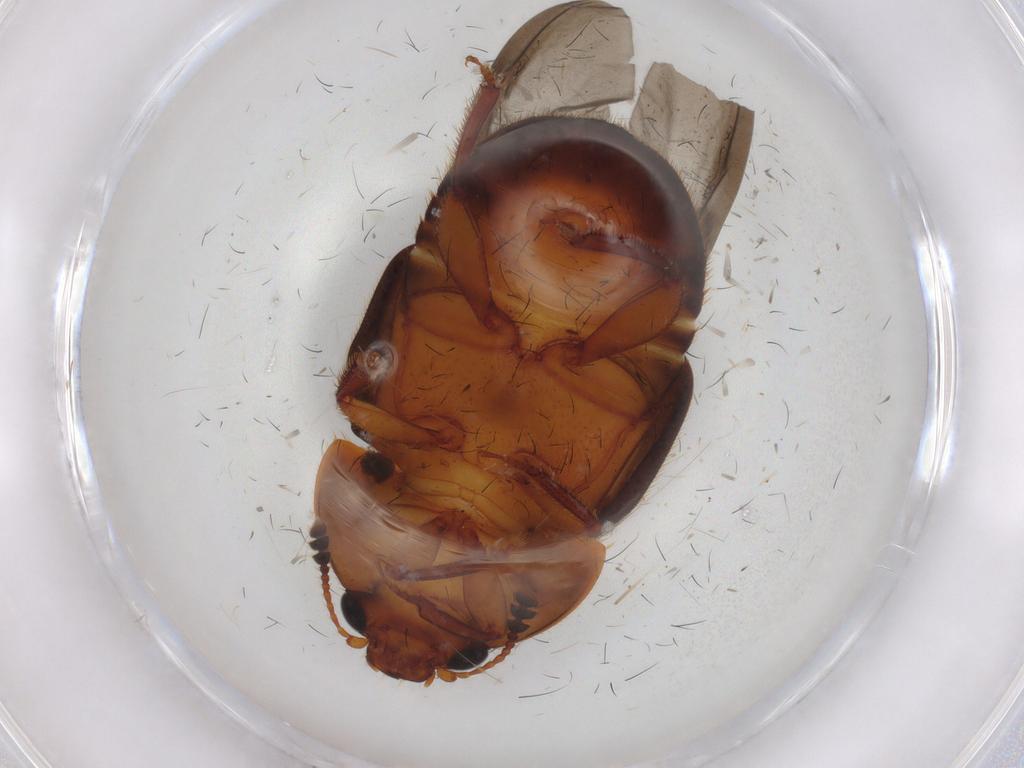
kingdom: Animalia
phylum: Arthropoda
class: Insecta
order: Coleoptera
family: Nitidulidae
